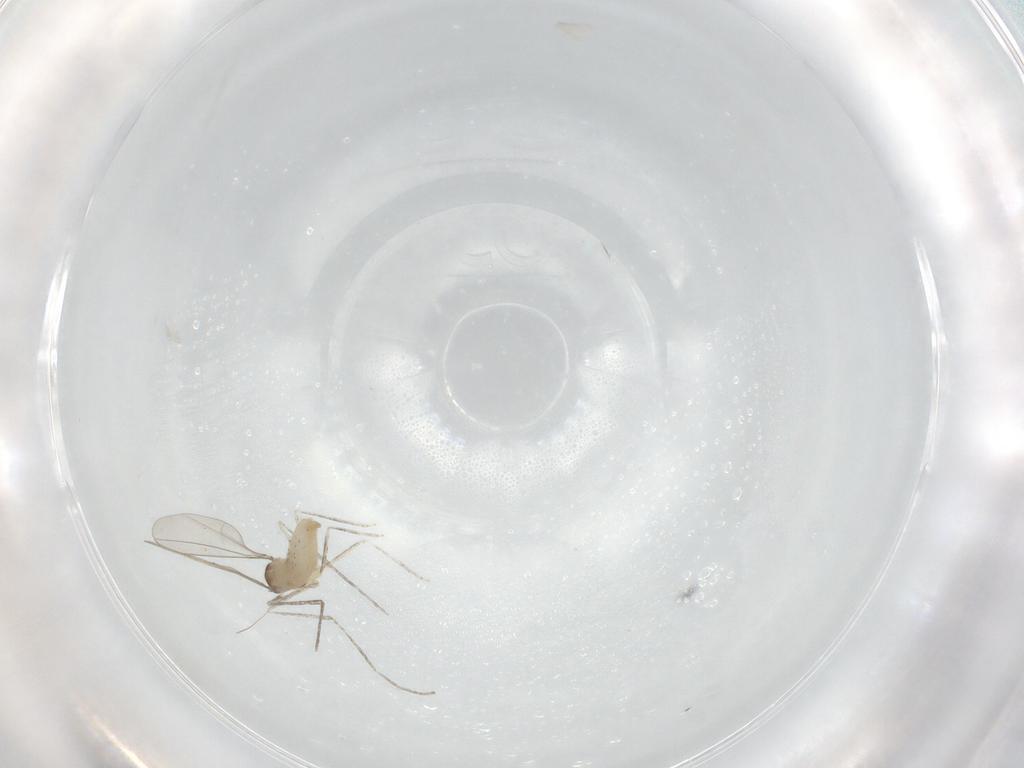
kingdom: Animalia
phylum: Arthropoda
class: Insecta
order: Diptera
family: Cecidomyiidae
